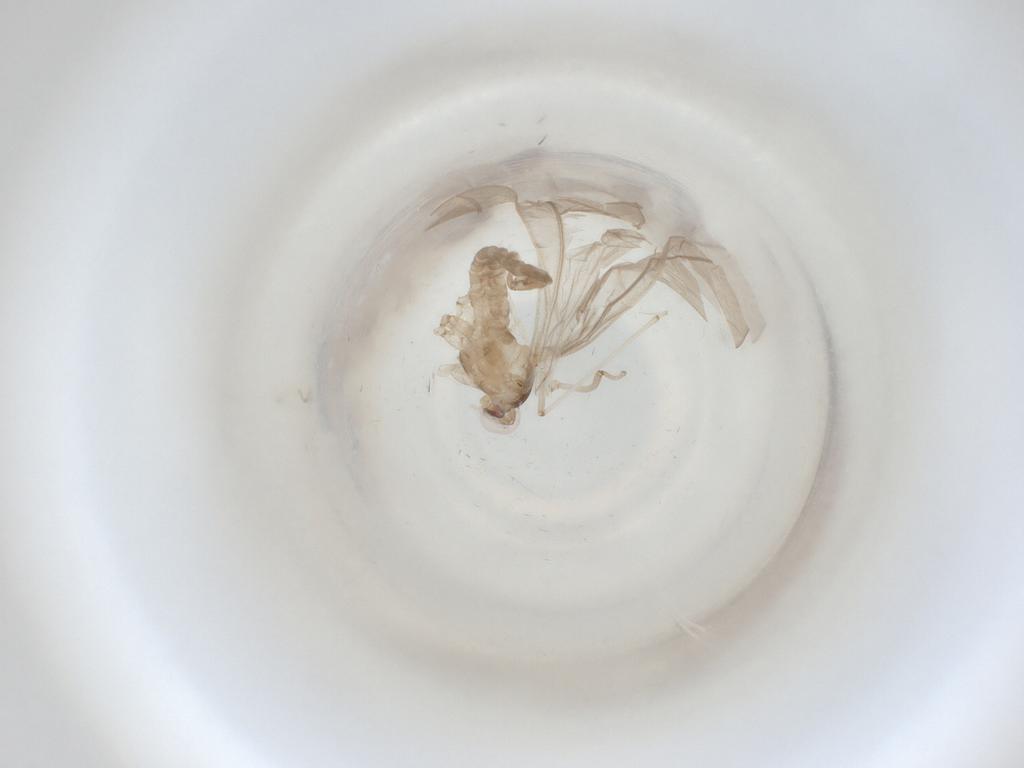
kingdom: Animalia
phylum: Arthropoda
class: Insecta
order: Diptera
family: Cecidomyiidae
